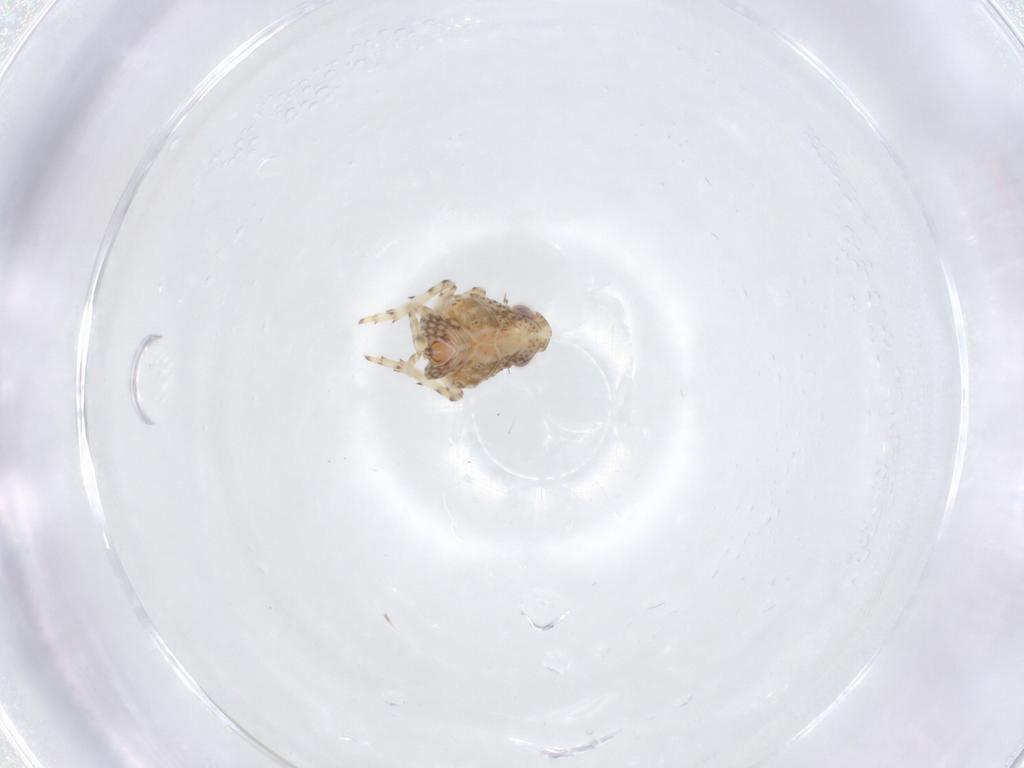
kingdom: Animalia
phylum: Arthropoda
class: Insecta
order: Hemiptera
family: Issidae
